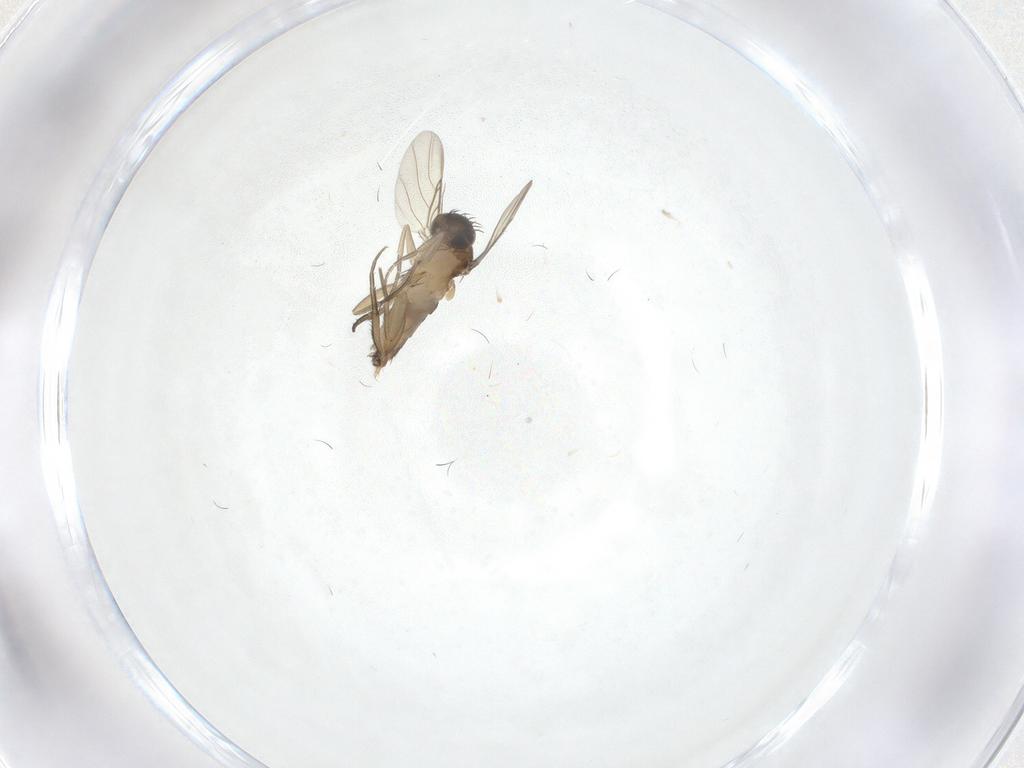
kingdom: Animalia
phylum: Arthropoda
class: Insecta
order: Diptera
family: Phoridae
